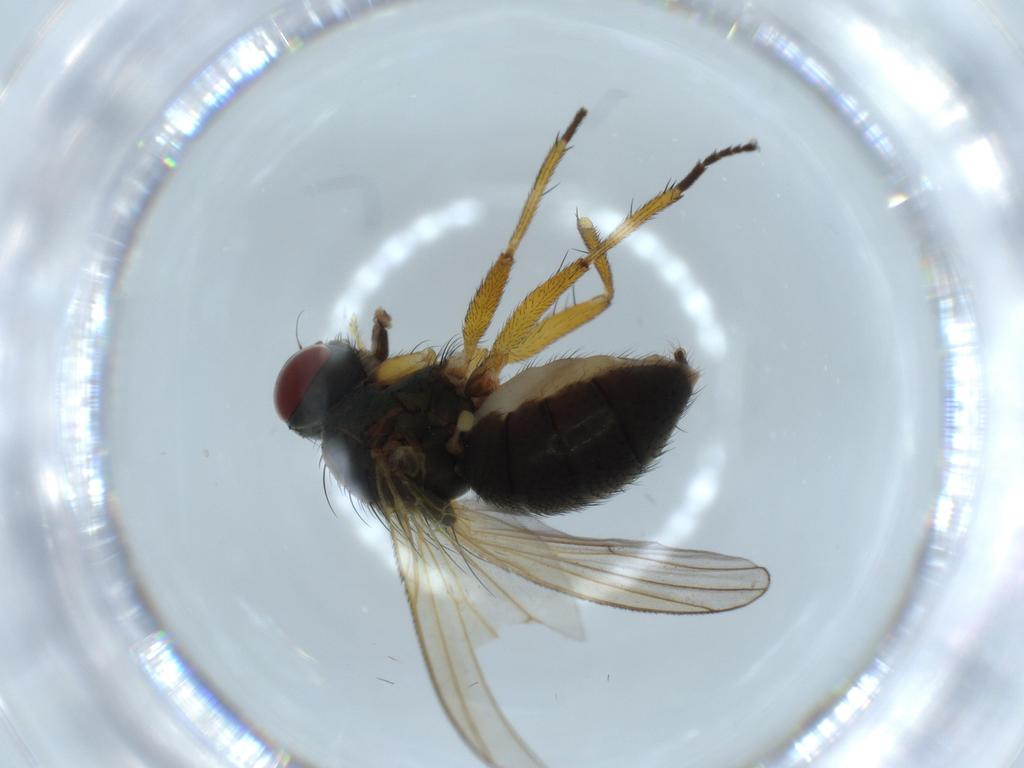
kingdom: Animalia
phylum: Arthropoda
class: Insecta
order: Diptera
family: Muscidae
